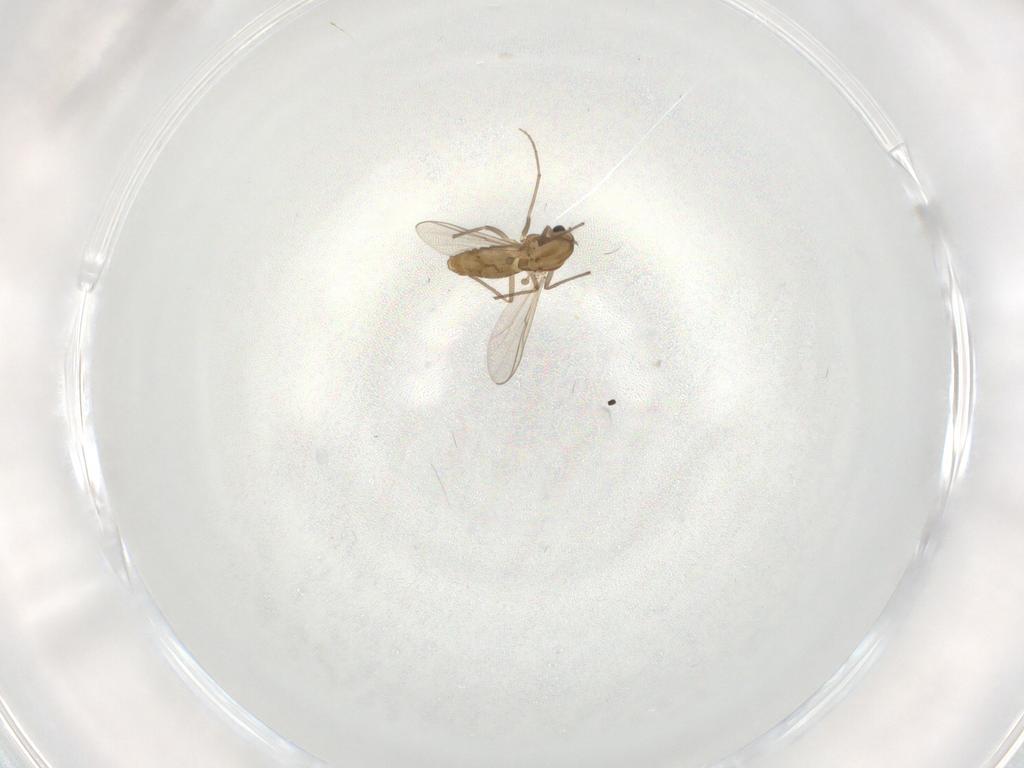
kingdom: Animalia
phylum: Arthropoda
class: Insecta
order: Diptera
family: Chironomidae
